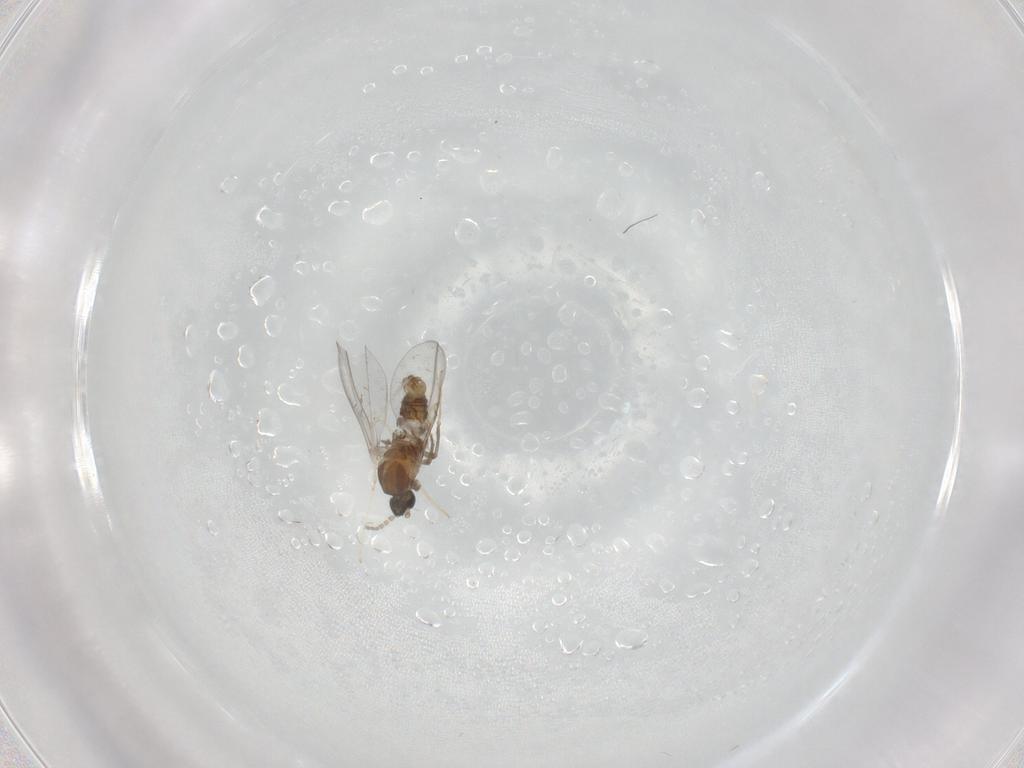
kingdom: Animalia
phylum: Arthropoda
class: Insecta
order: Diptera
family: Cecidomyiidae
